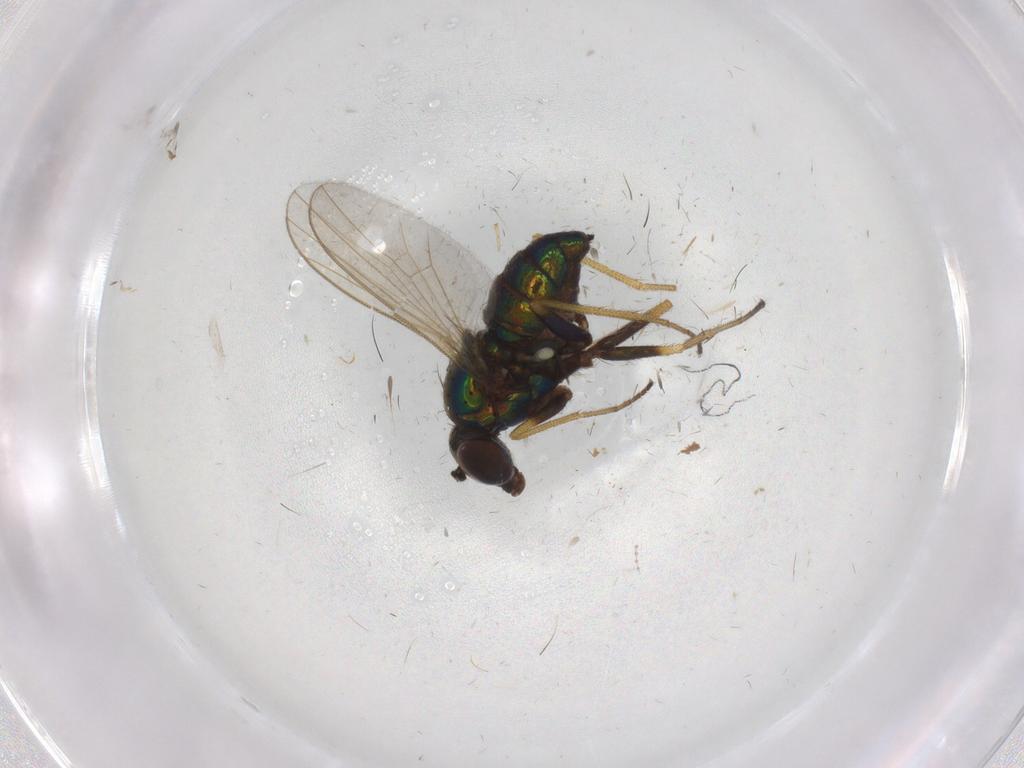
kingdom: Animalia
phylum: Arthropoda
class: Insecta
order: Diptera
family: Dolichopodidae
